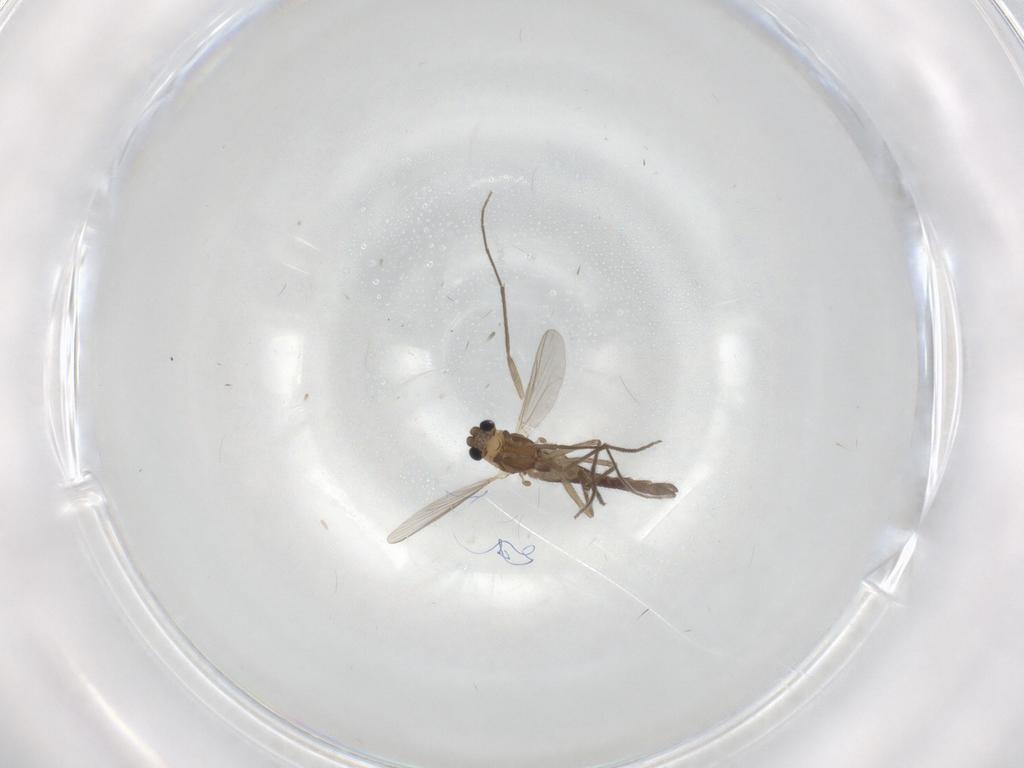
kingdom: Animalia
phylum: Arthropoda
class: Insecta
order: Diptera
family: Chironomidae
